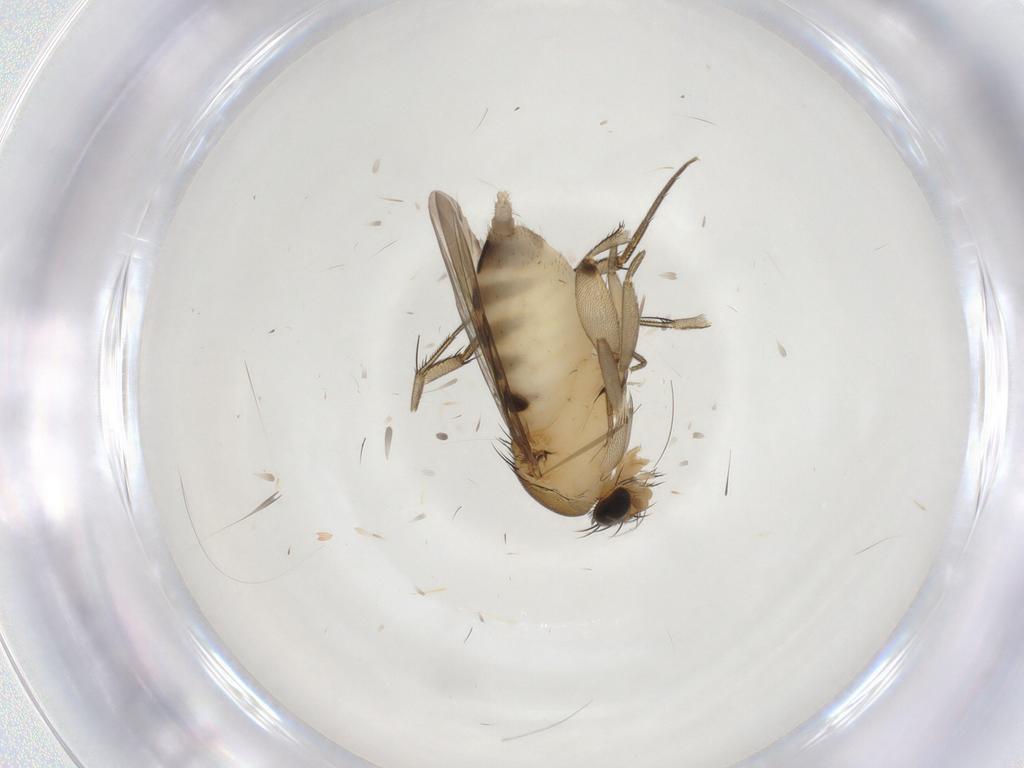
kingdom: Animalia
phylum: Arthropoda
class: Insecta
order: Diptera
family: Phoridae
